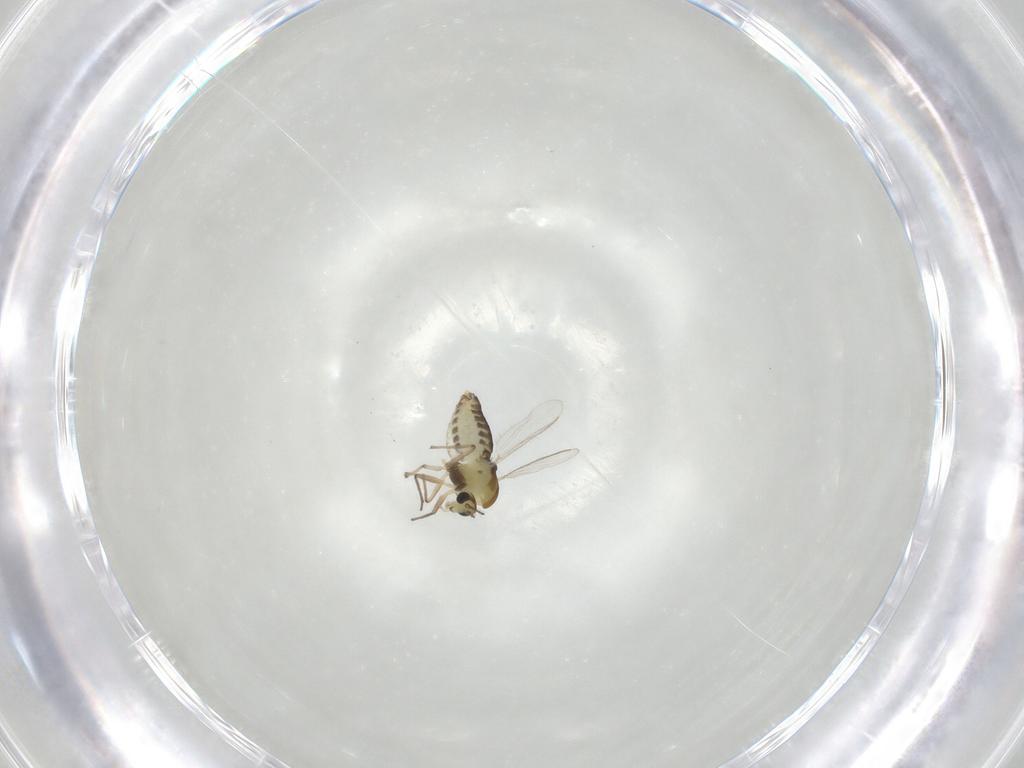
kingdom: Animalia
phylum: Arthropoda
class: Insecta
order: Diptera
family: Chironomidae
